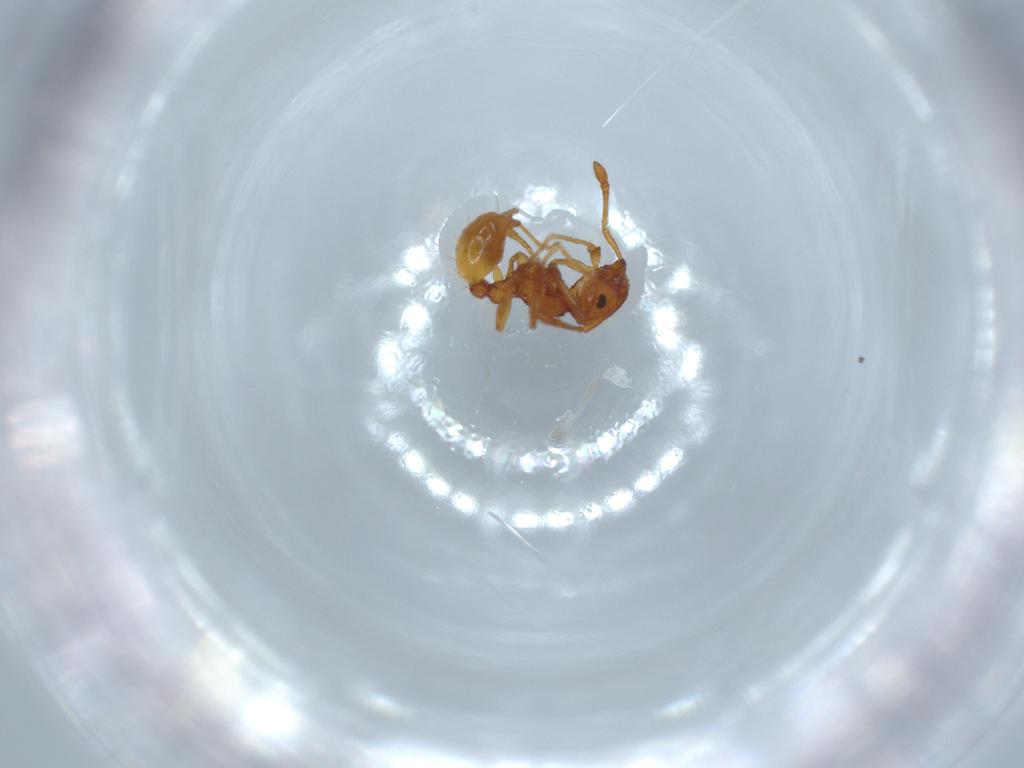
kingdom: Animalia
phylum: Arthropoda
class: Insecta
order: Hymenoptera
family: Formicidae
